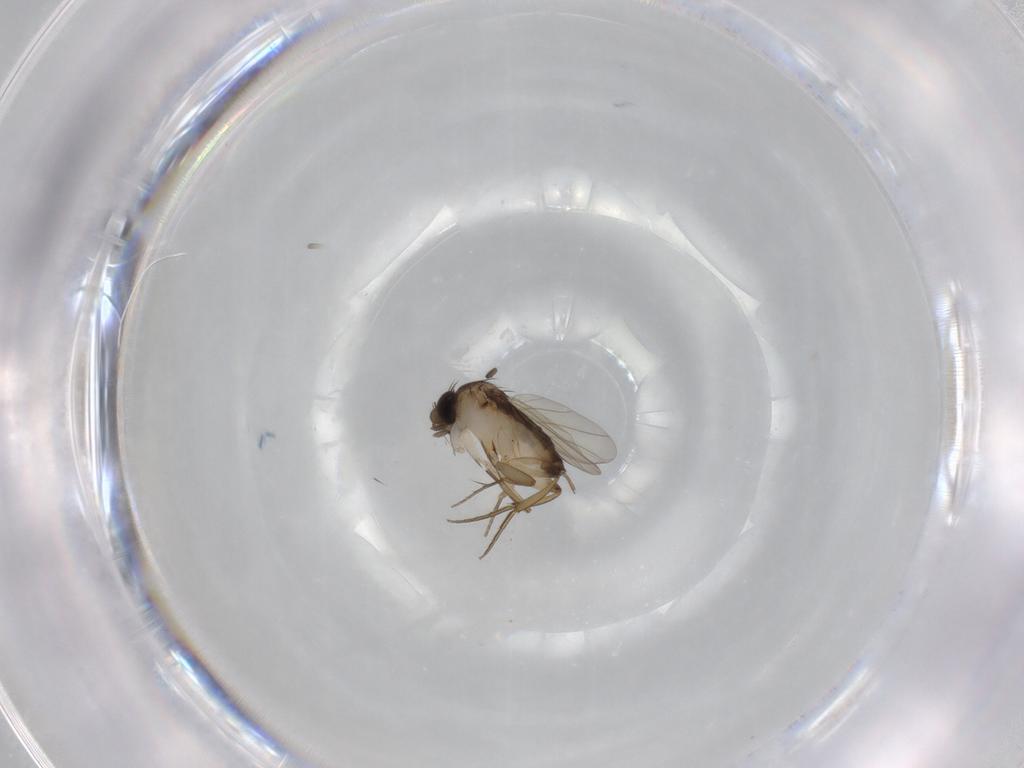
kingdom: Animalia
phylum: Arthropoda
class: Insecta
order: Diptera
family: Phoridae
